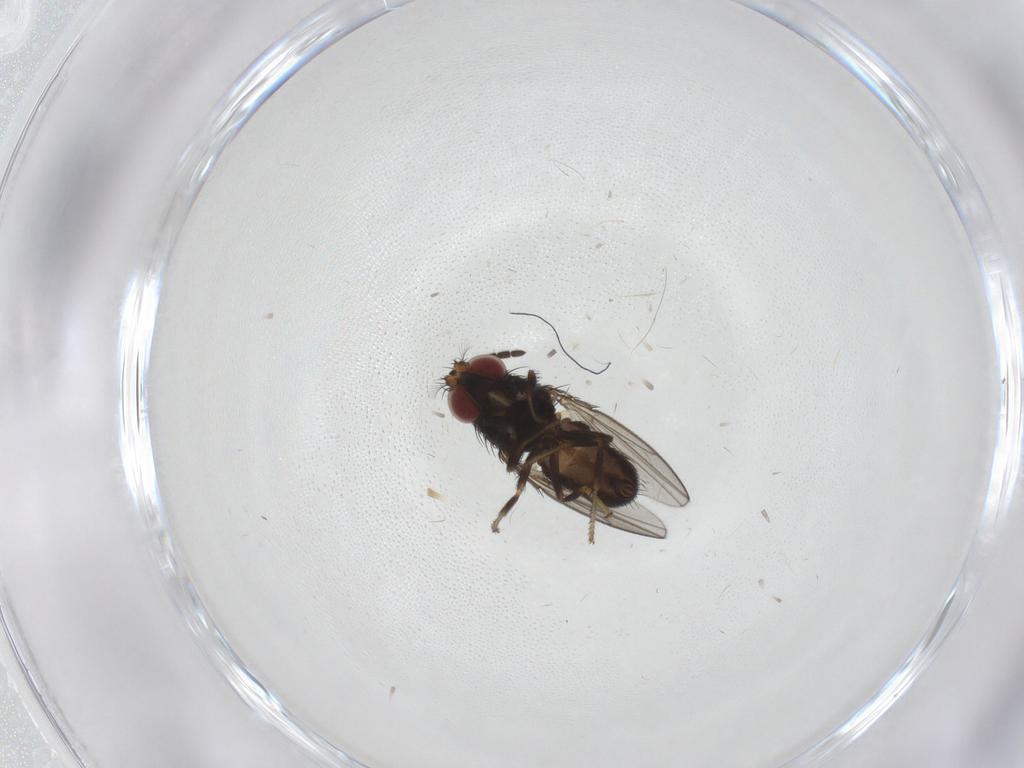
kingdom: Animalia
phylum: Arthropoda
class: Insecta
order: Diptera
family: Ephydridae
